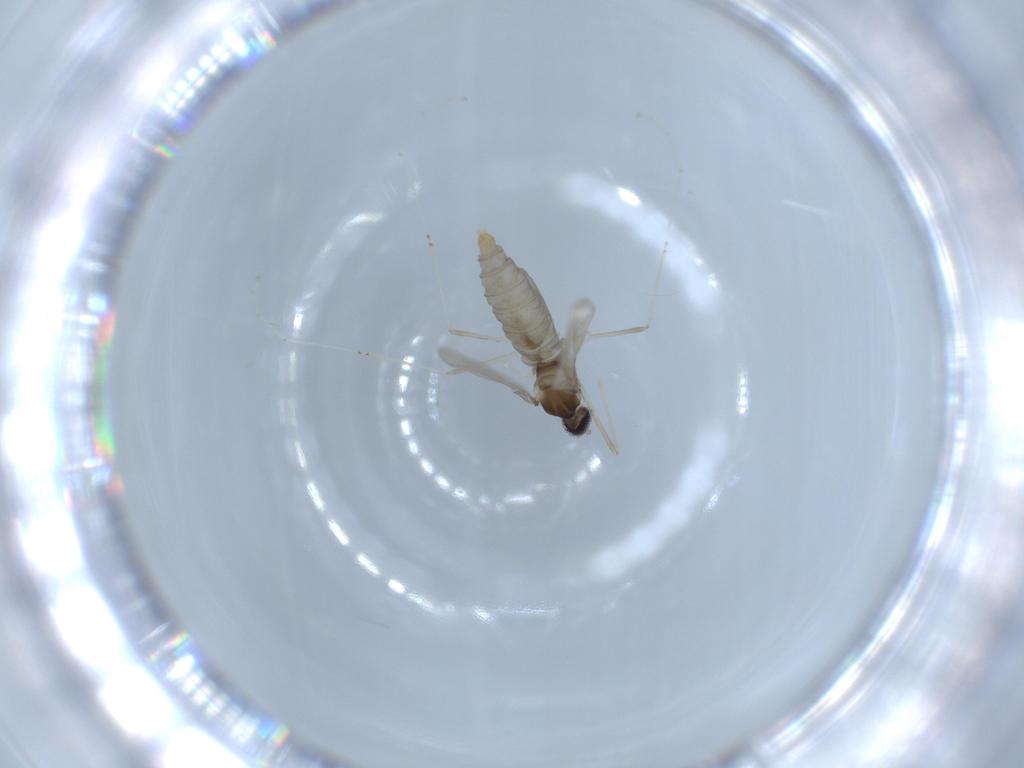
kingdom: Animalia
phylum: Arthropoda
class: Insecta
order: Diptera
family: Cecidomyiidae
